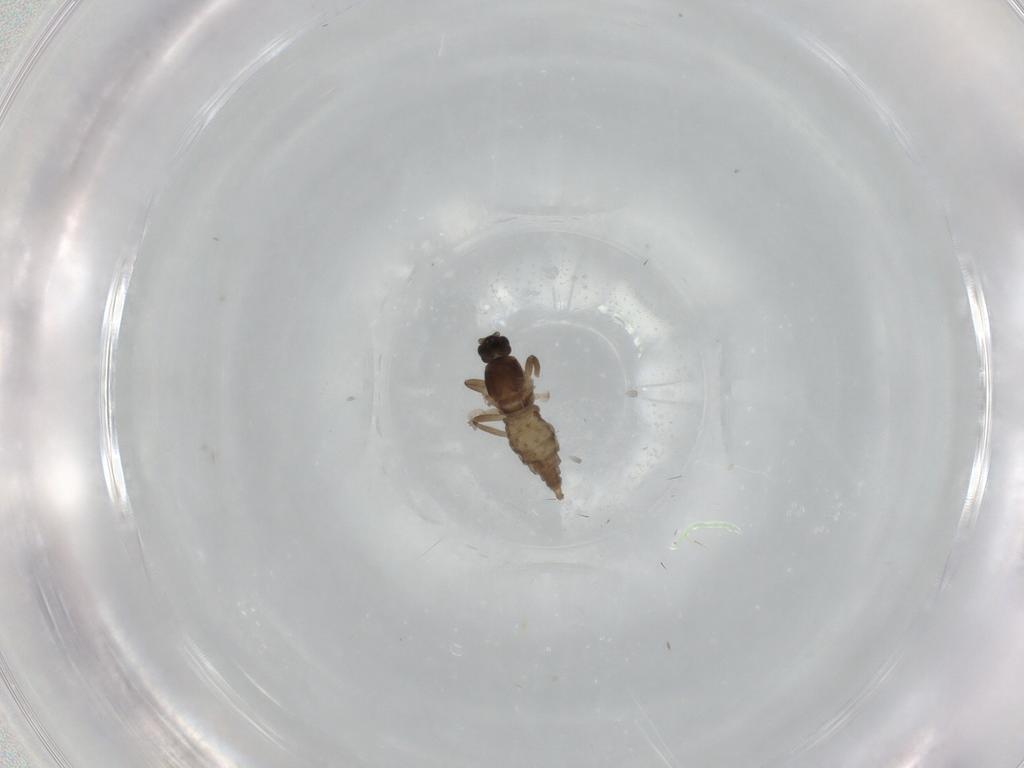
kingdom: Animalia
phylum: Arthropoda
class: Insecta
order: Diptera
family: Cecidomyiidae
